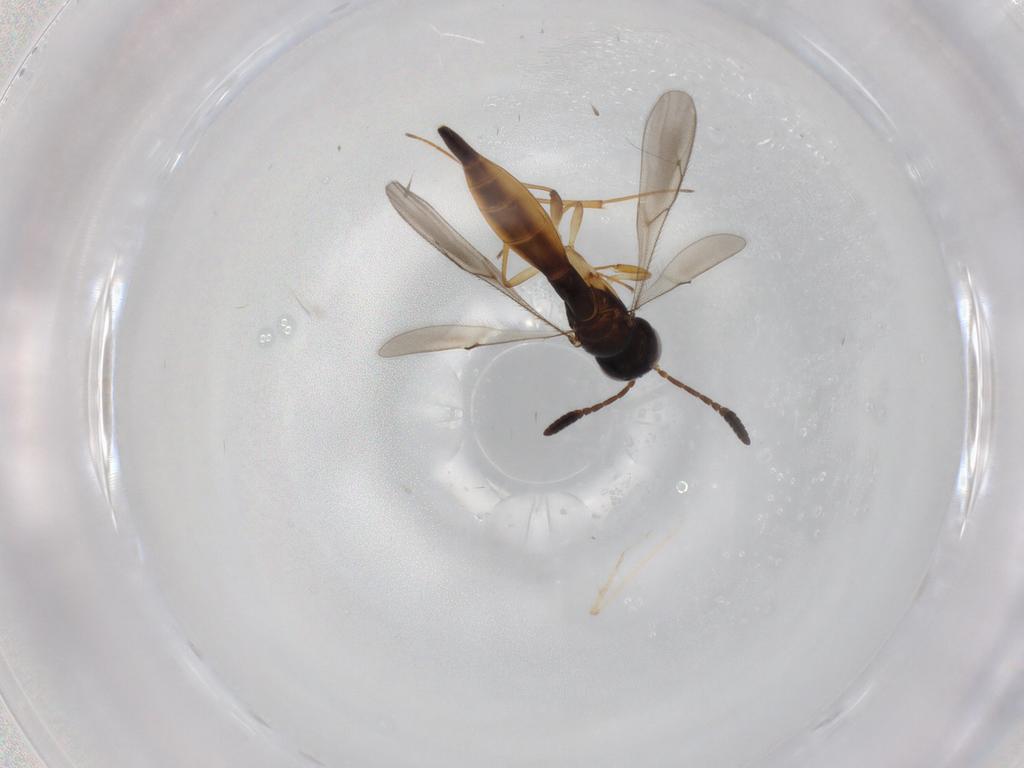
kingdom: Animalia
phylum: Arthropoda
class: Insecta
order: Hymenoptera
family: Scelionidae
